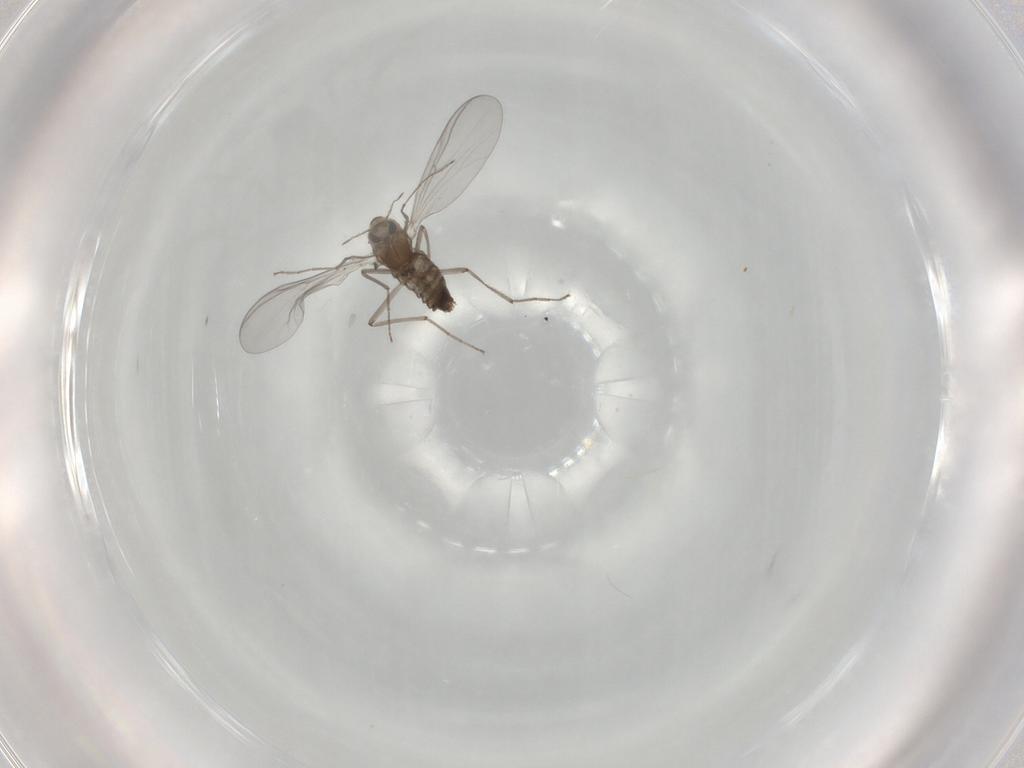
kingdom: Animalia
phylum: Arthropoda
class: Insecta
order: Diptera
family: Chironomidae
